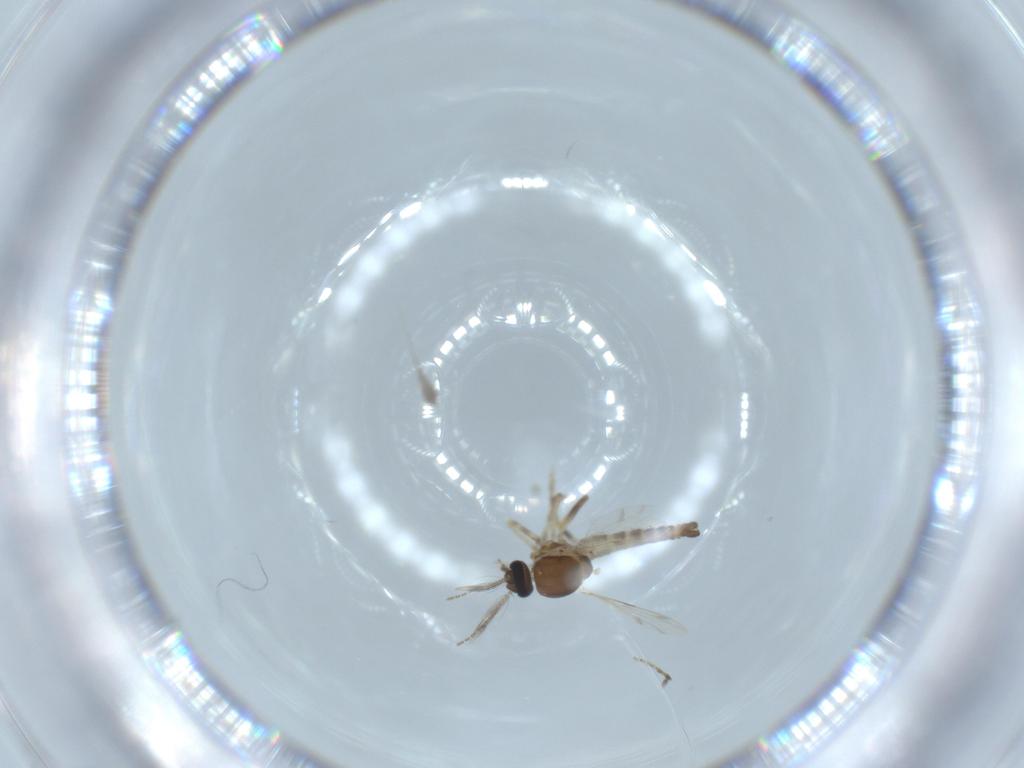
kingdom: Animalia
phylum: Arthropoda
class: Insecta
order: Diptera
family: Ceratopogonidae
